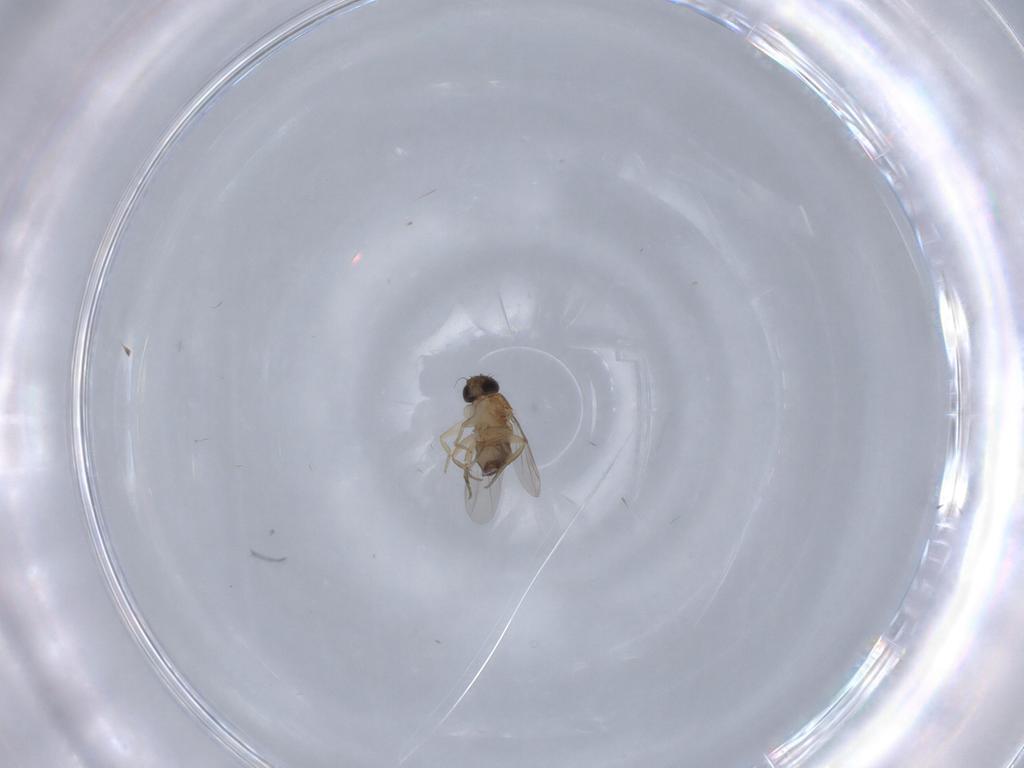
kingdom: Animalia
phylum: Arthropoda
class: Insecta
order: Diptera
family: Phoridae
